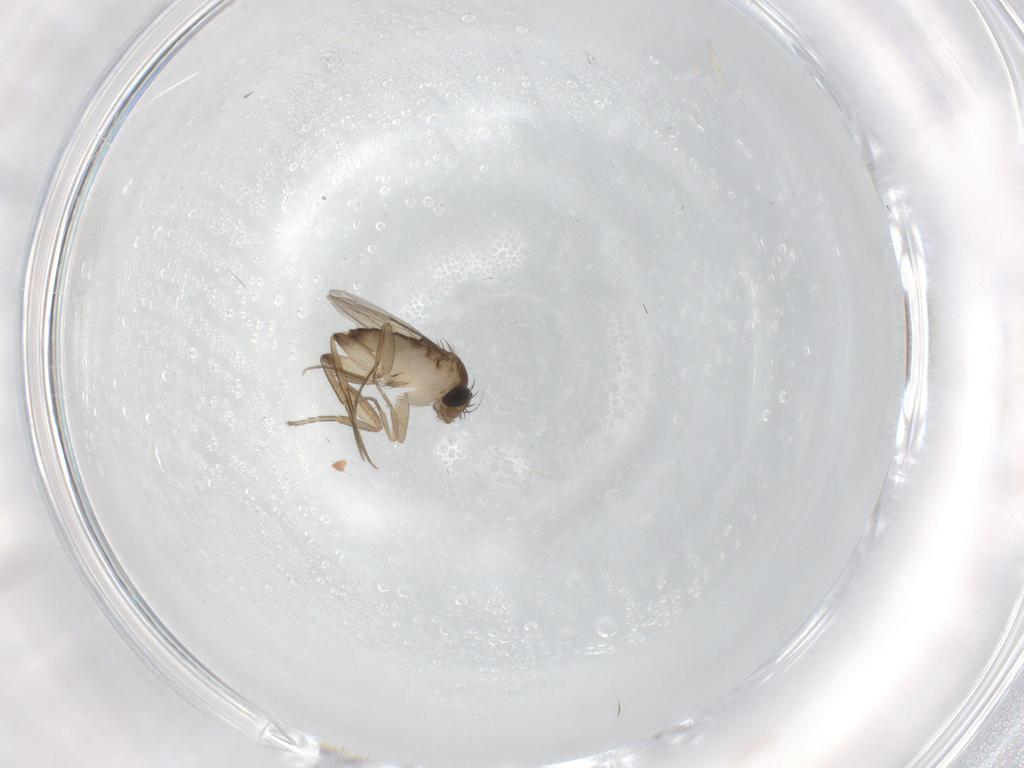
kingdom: Animalia
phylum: Arthropoda
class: Insecta
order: Diptera
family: Phoridae
